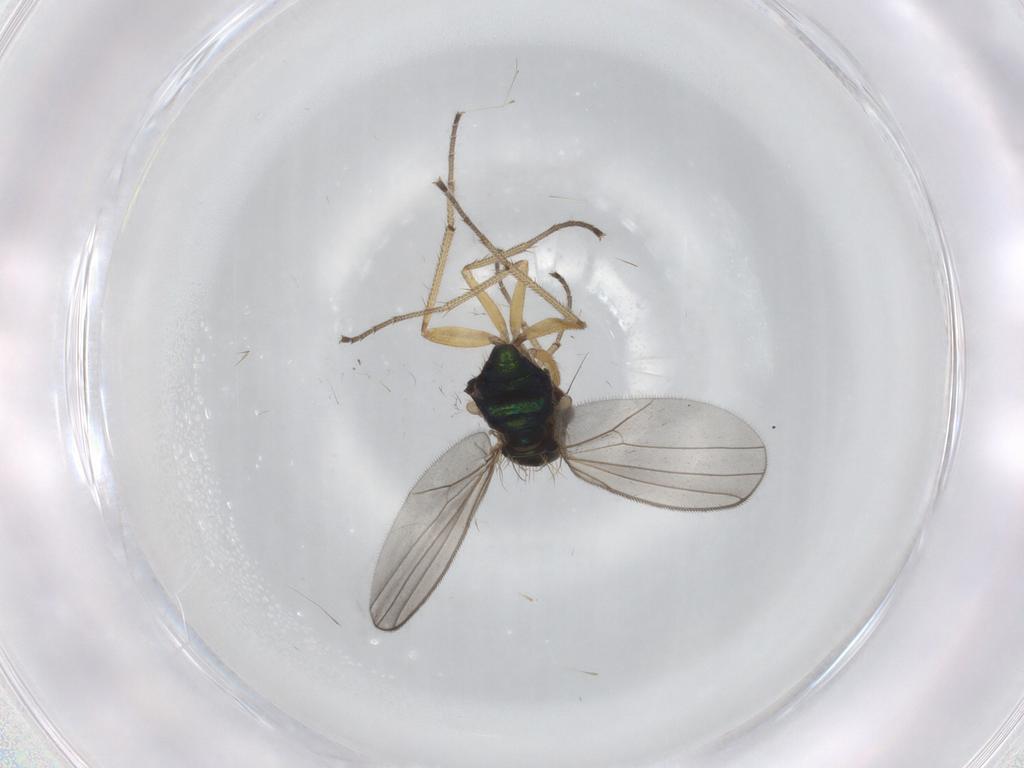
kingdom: Animalia
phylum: Arthropoda
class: Insecta
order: Diptera
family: Dolichopodidae
